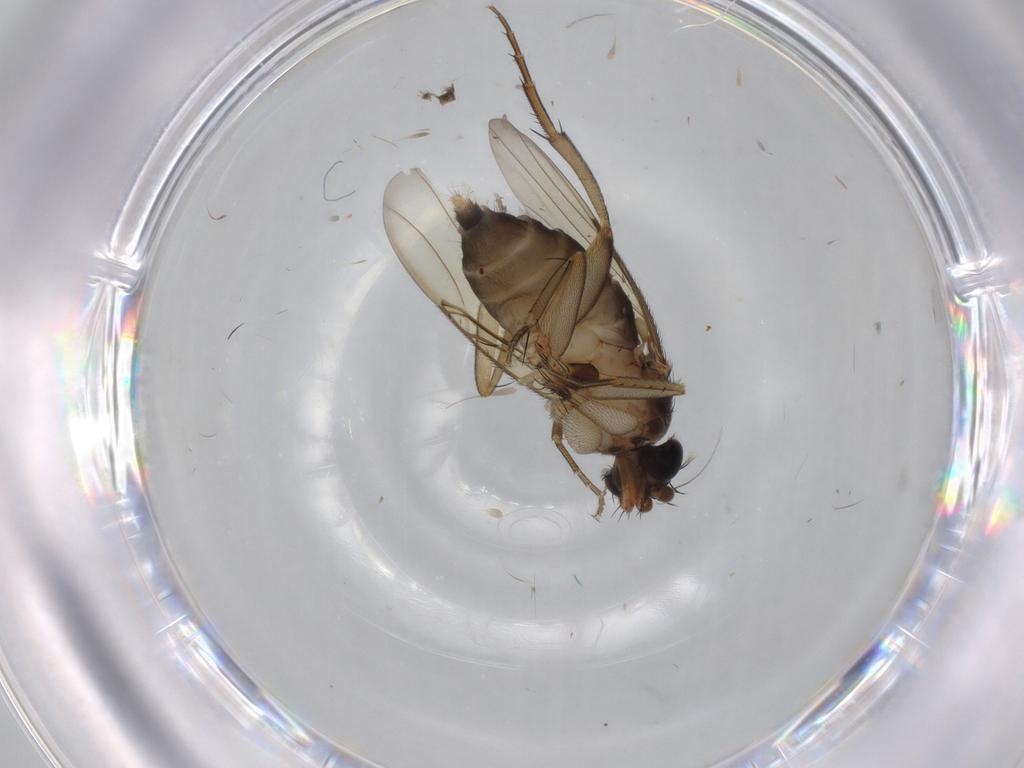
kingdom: Animalia
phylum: Arthropoda
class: Insecta
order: Diptera
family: Phoridae
